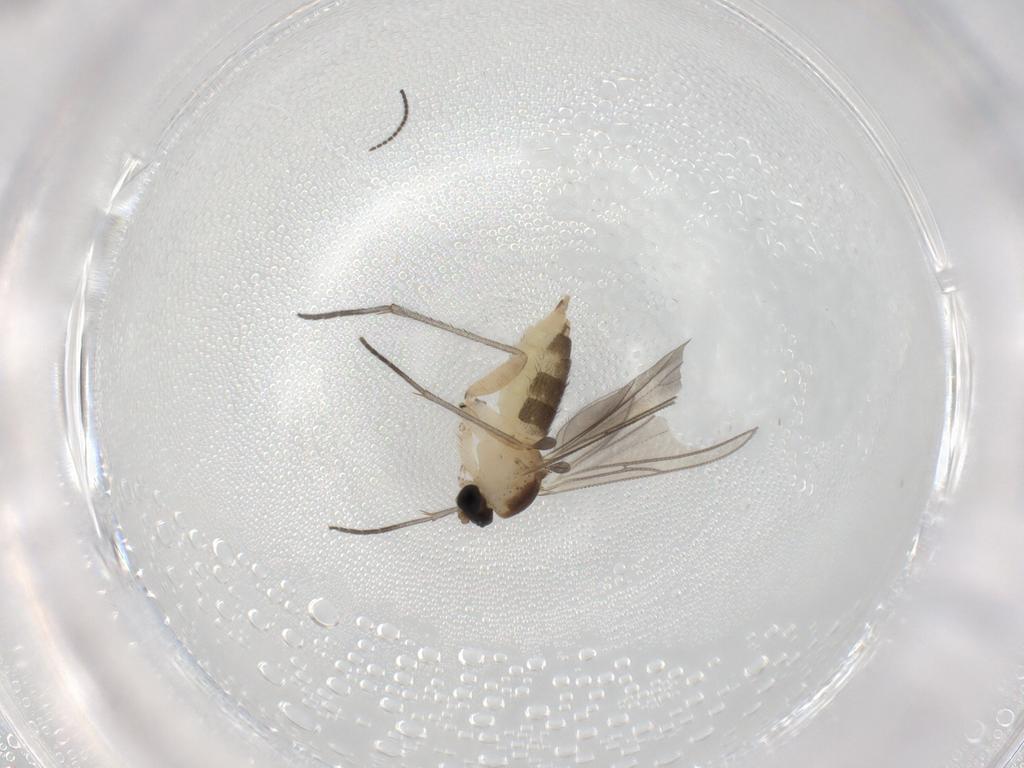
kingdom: Animalia
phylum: Arthropoda
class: Insecta
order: Diptera
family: Sciaridae
